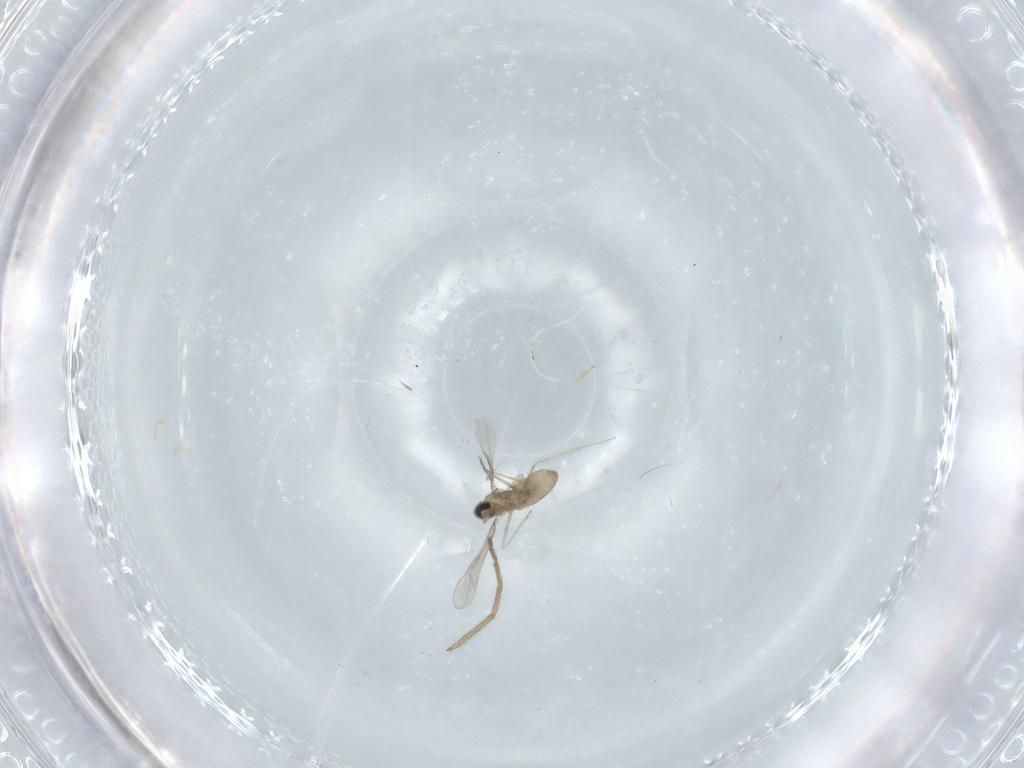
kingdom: Animalia
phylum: Arthropoda
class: Insecta
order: Diptera
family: Cecidomyiidae
